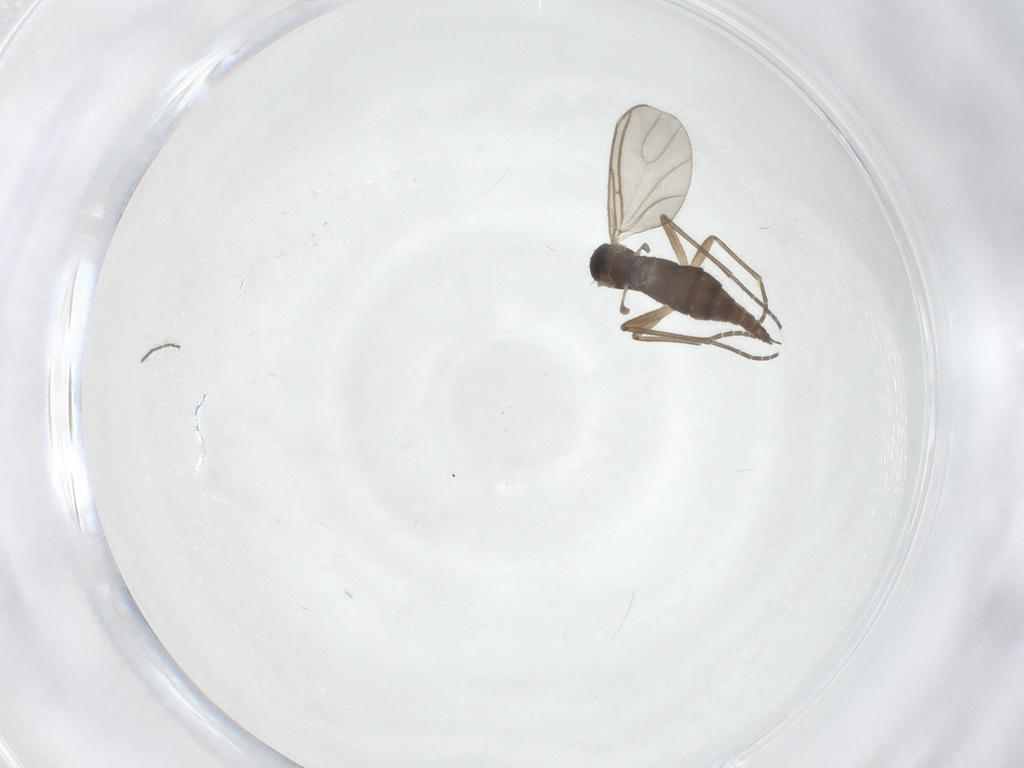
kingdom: Animalia
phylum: Arthropoda
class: Insecta
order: Diptera
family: Sciaridae
